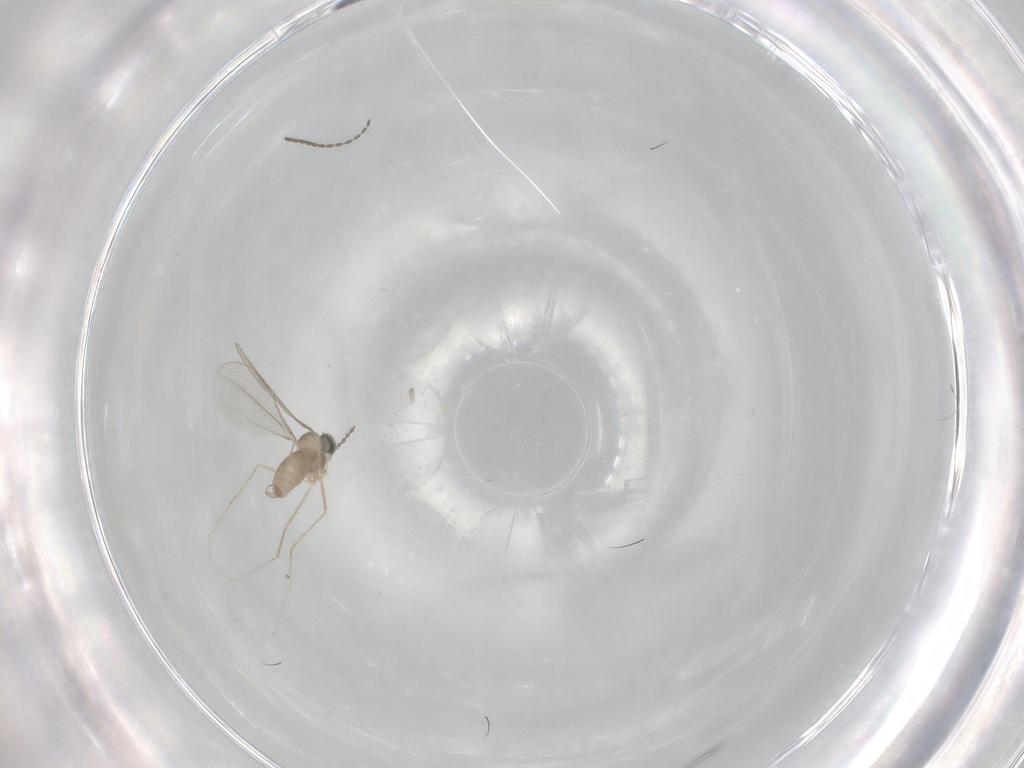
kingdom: Animalia
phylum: Arthropoda
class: Insecta
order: Diptera
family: Cecidomyiidae
